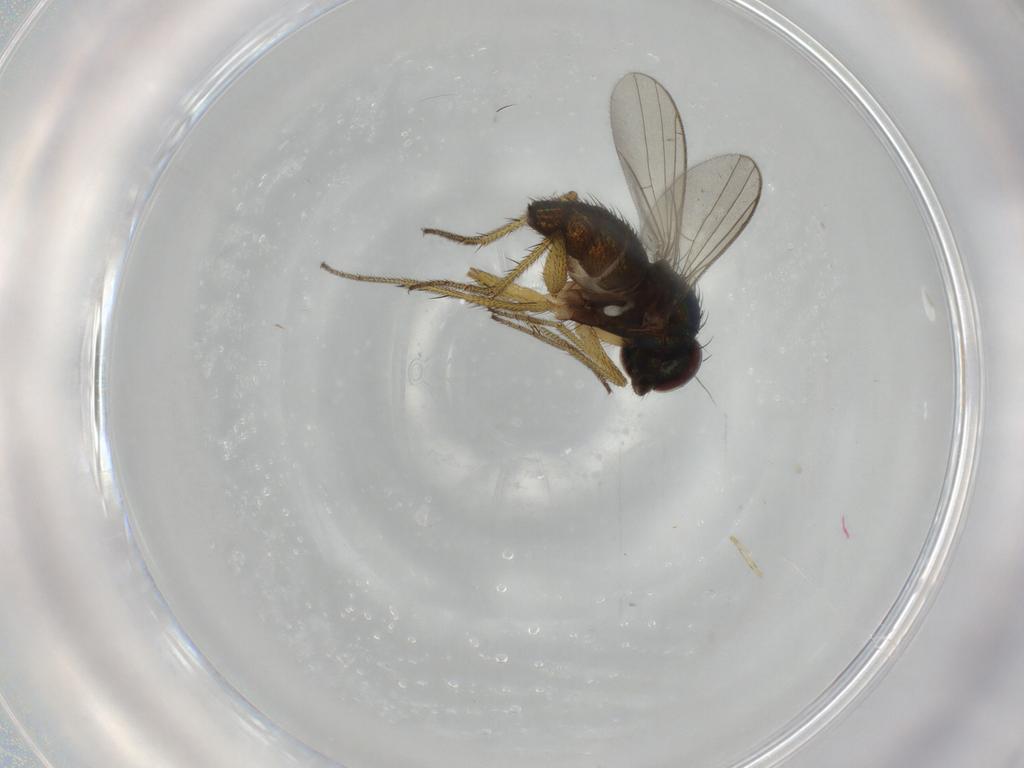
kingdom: Animalia
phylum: Arthropoda
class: Insecta
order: Diptera
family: Dolichopodidae
